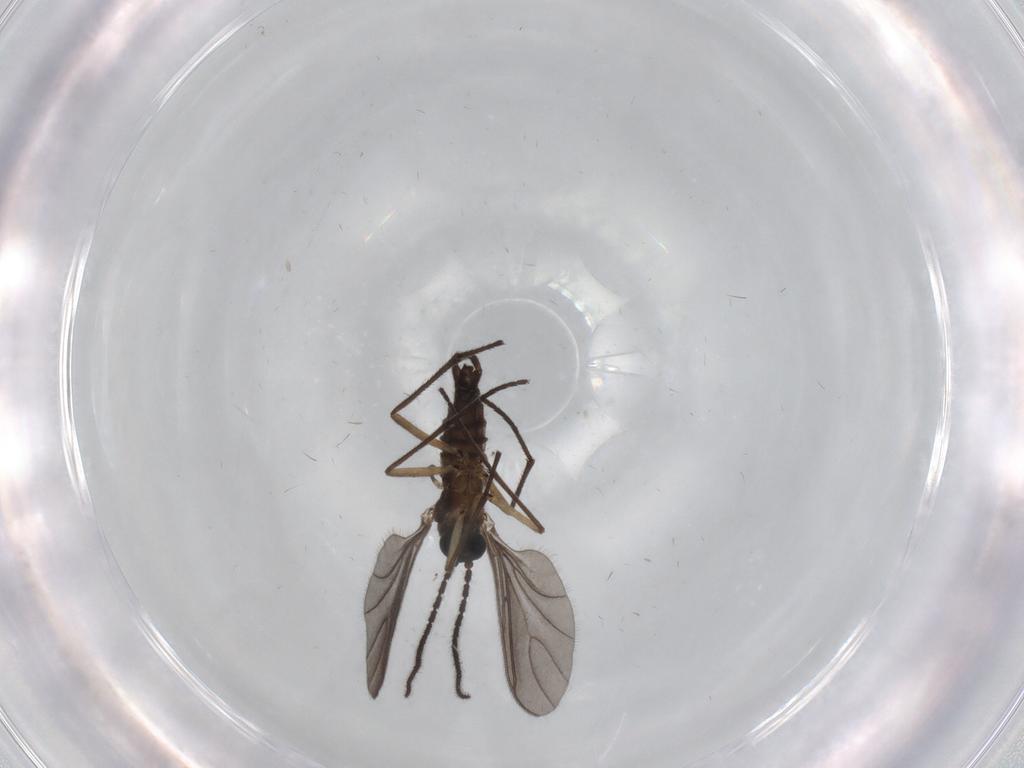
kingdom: Animalia
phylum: Arthropoda
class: Insecta
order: Diptera
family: Sciaridae
